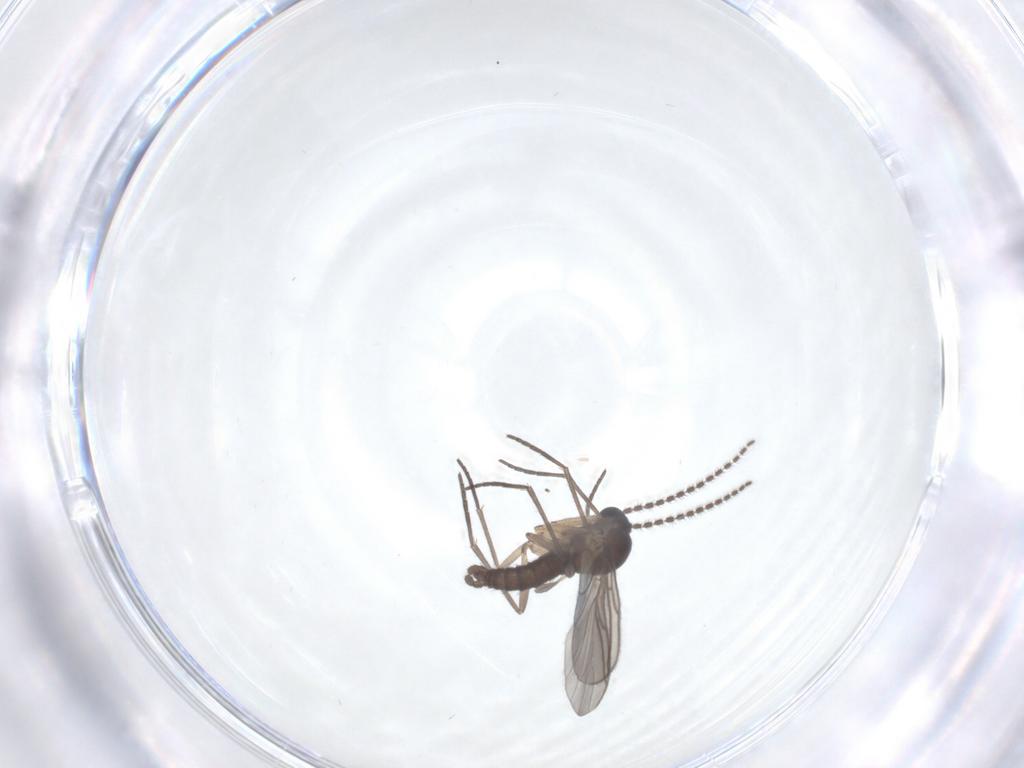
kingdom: Animalia
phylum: Arthropoda
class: Insecta
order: Diptera
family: Sciaridae
